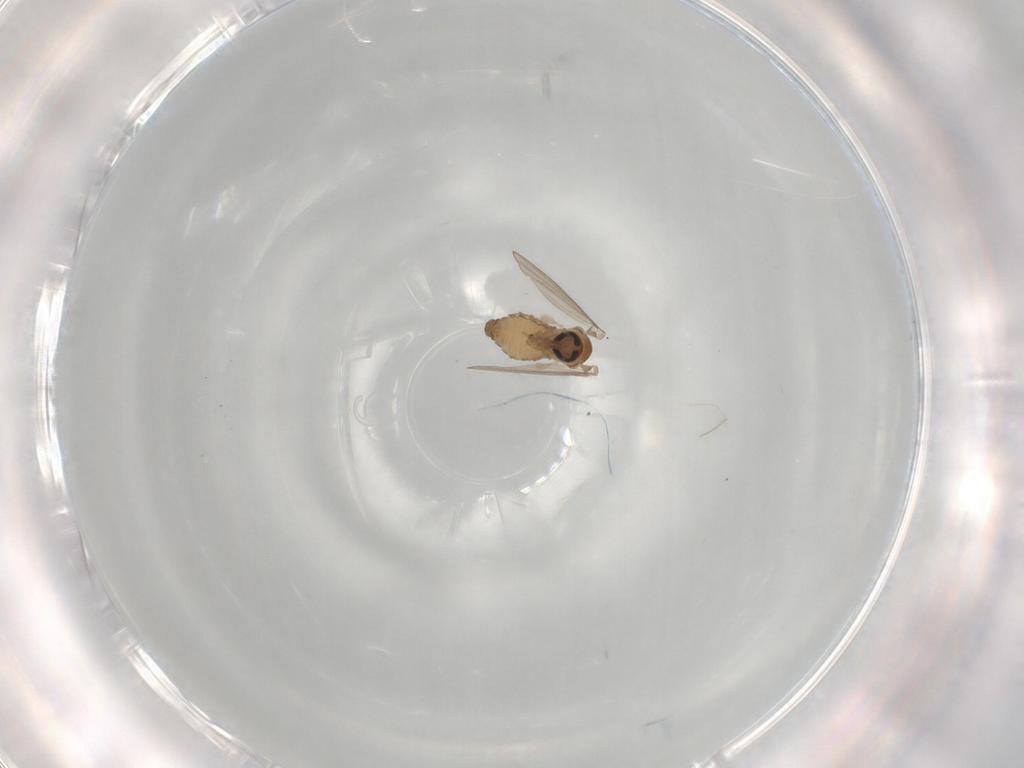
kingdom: Animalia
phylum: Arthropoda
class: Insecta
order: Diptera
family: Psychodidae
